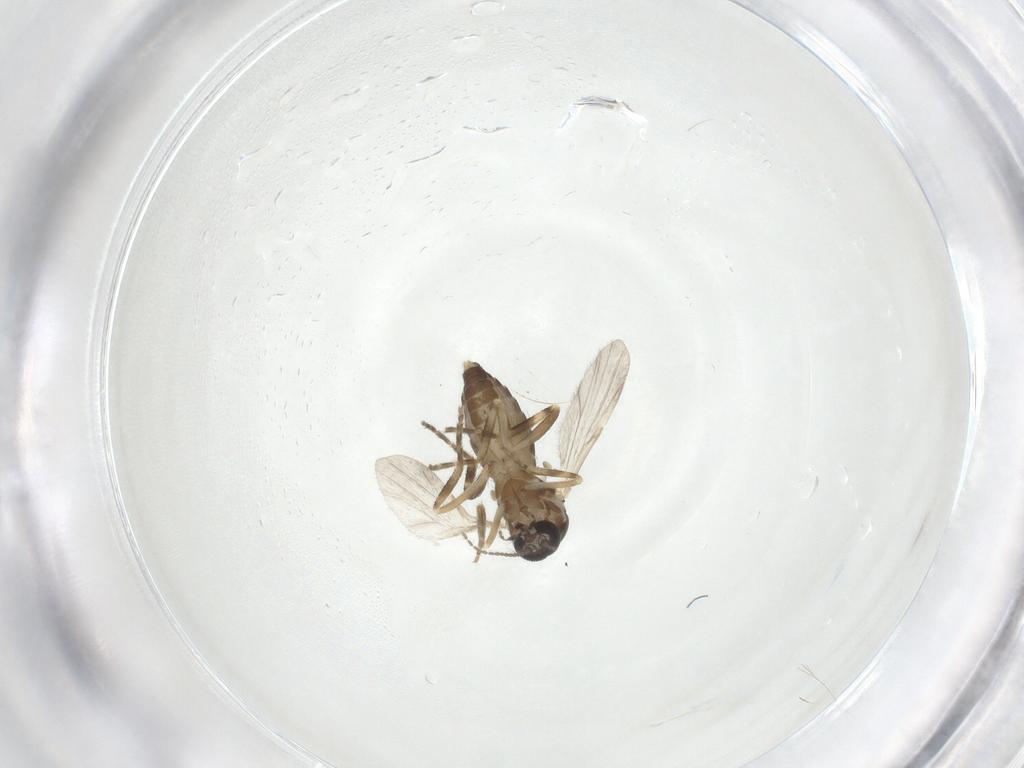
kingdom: Animalia
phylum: Arthropoda
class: Insecta
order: Diptera
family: Ceratopogonidae
